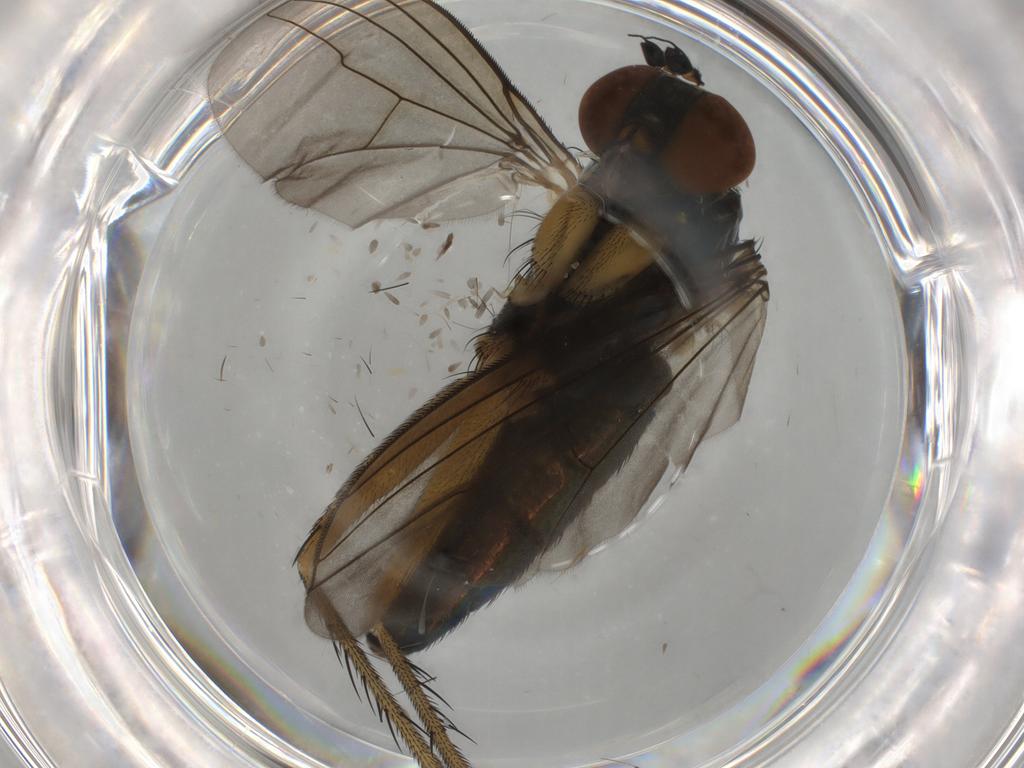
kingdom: Animalia
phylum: Arthropoda
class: Insecta
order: Diptera
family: Dolichopodidae
